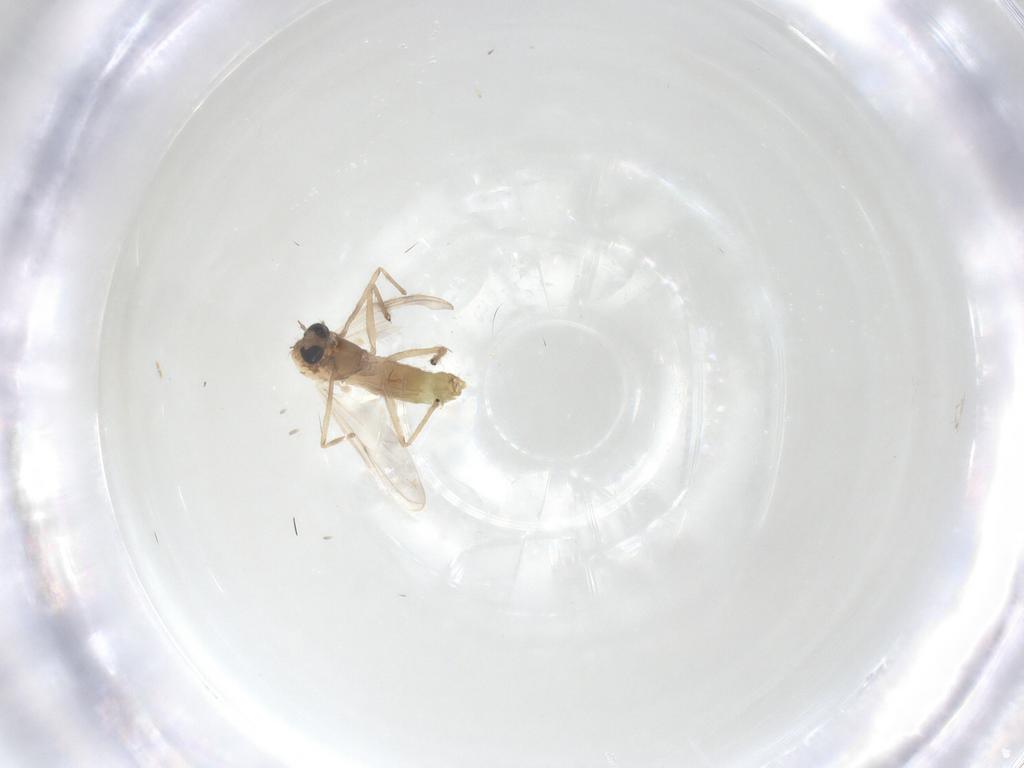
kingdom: Animalia
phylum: Arthropoda
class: Insecta
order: Diptera
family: Chironomidae
